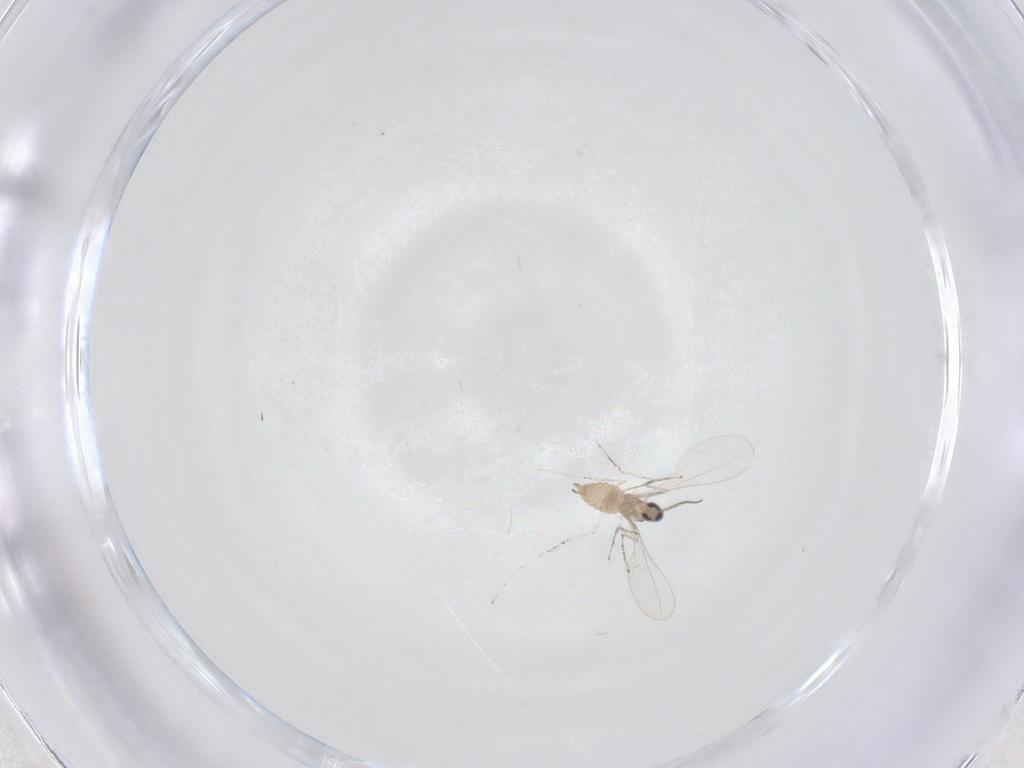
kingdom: Animalia
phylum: Arthropoda
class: Insecta
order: Diptera
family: Cecidomyiidae
